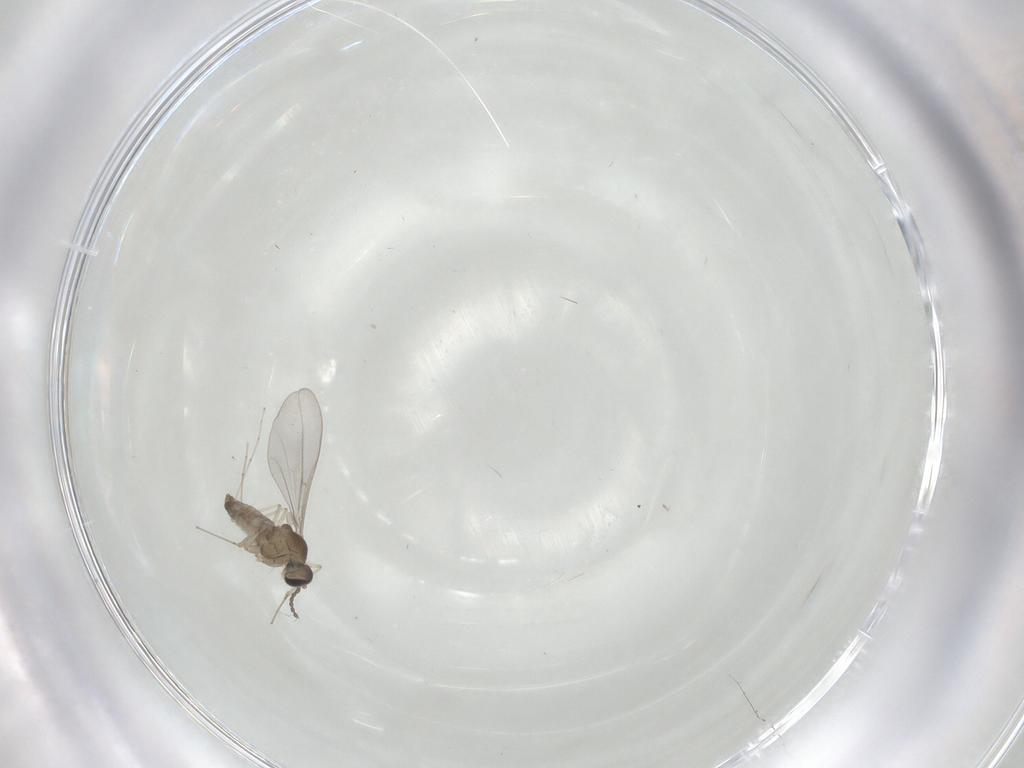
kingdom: Animalia
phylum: Arthropoda
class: Insecta
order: Diptera
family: Cecidomyiidae
